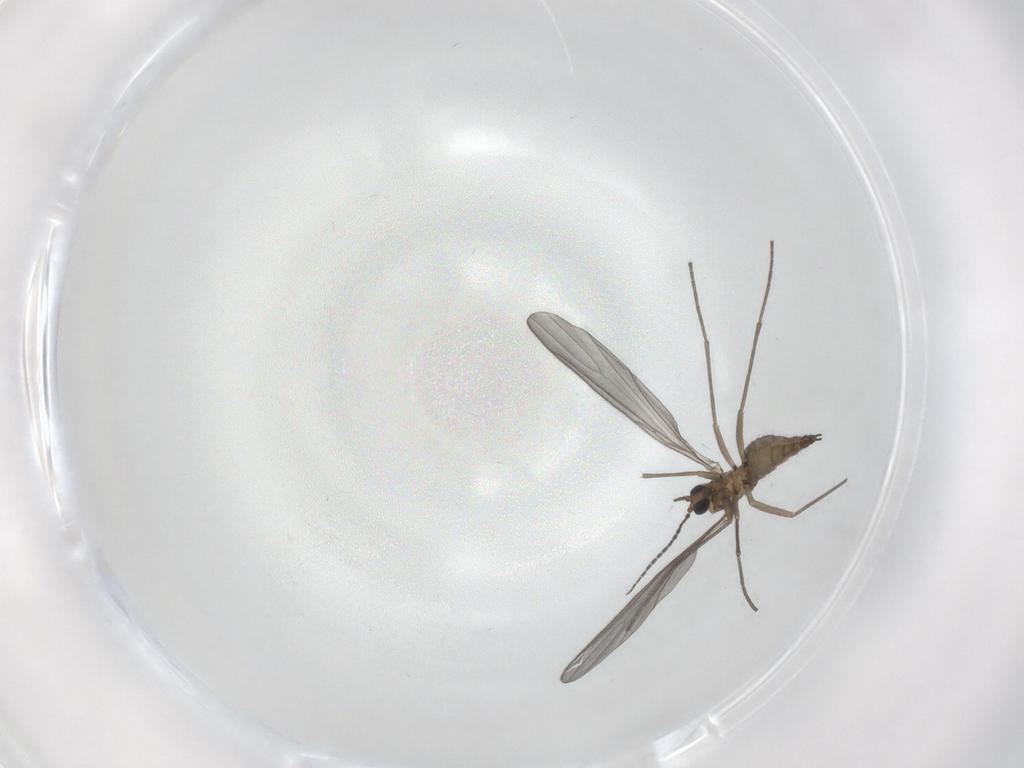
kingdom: Animalia
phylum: Arthropoda
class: Insecta
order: Diptera
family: Sciaridae
